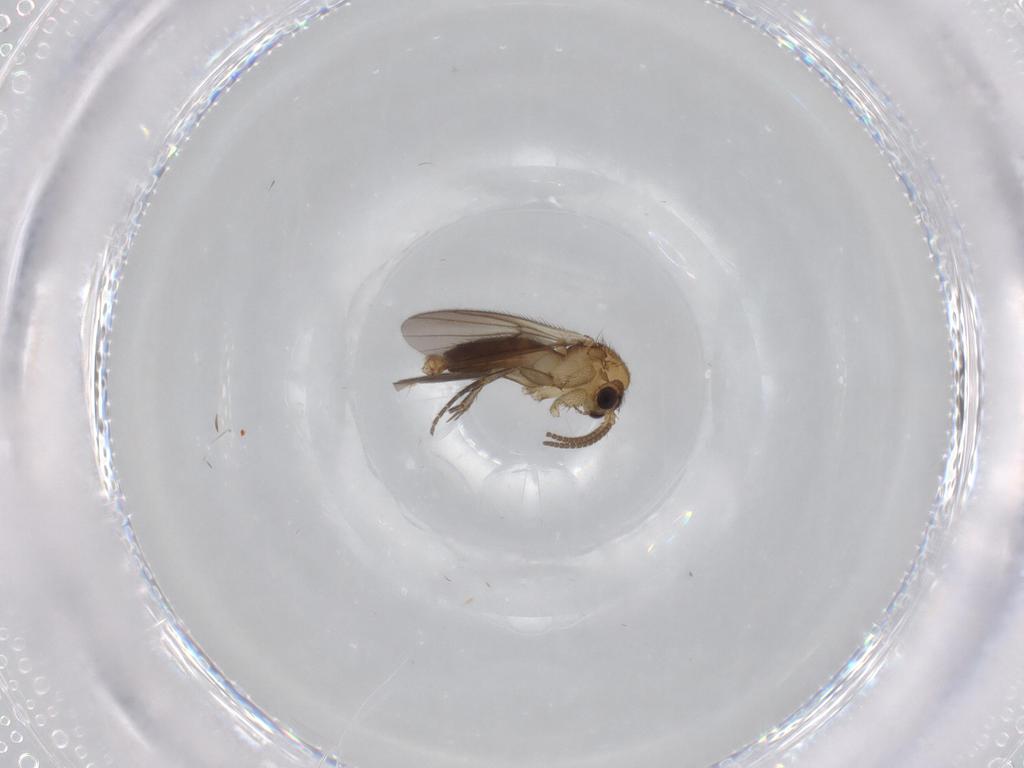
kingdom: Animalia
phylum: Arthropoda
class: Insecta
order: Diptera
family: Mycetophilidae
